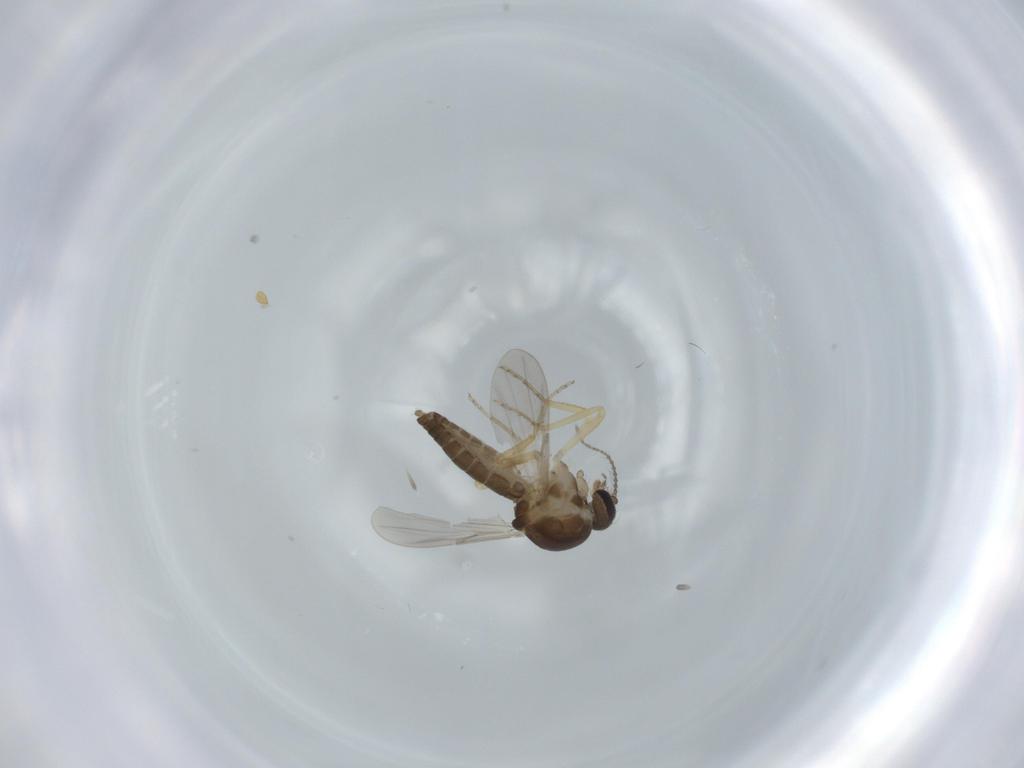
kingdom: Animalia
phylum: Arthropoda
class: Insecta
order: Diptera
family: Ceratopogonidae
